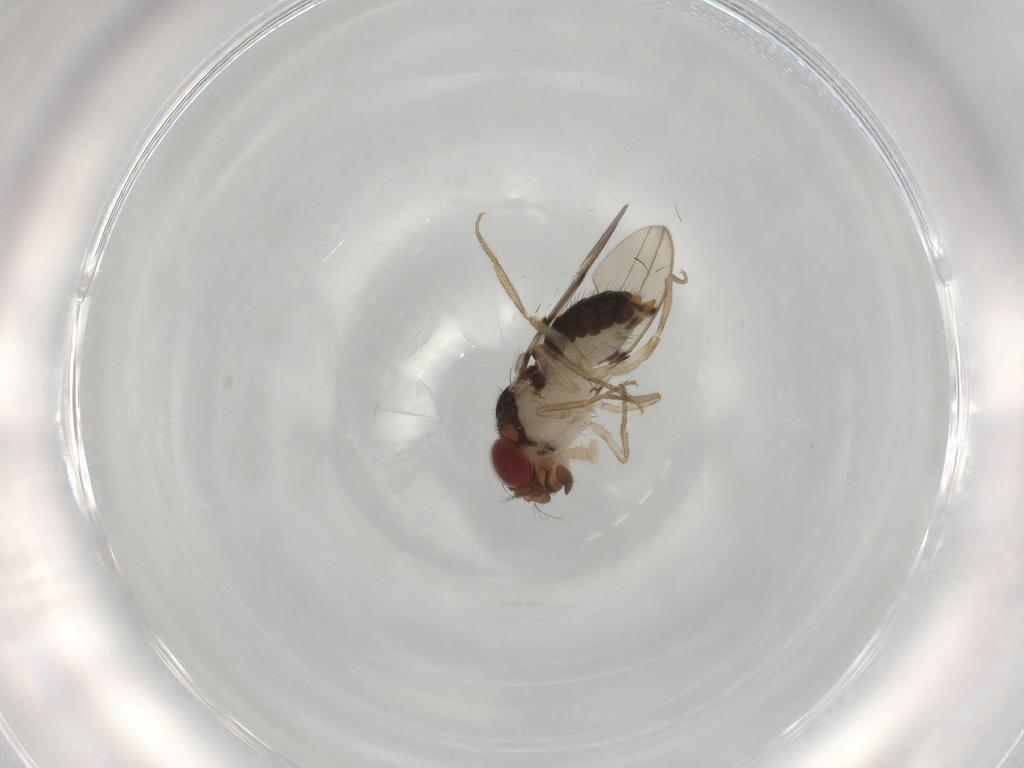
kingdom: Animalia
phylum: Arthropoda
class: Insecta
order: Diptera
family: Drosophilidae
